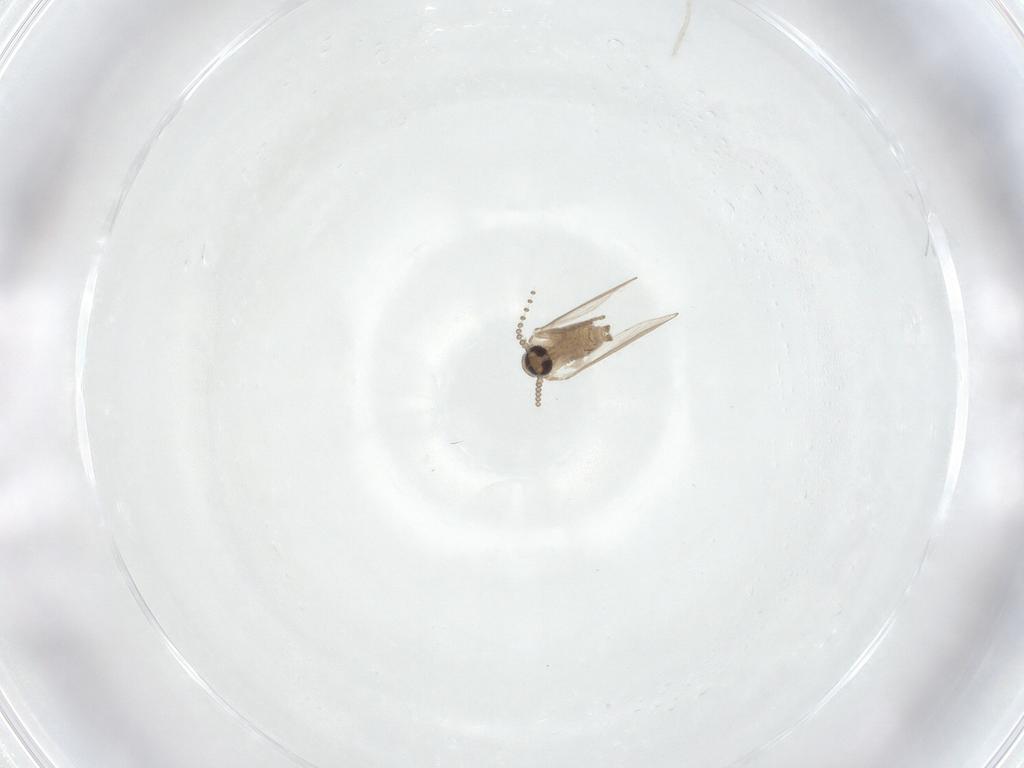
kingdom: Animalia
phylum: Arthropoda
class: Insecta
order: Diptera
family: Psychodidae
